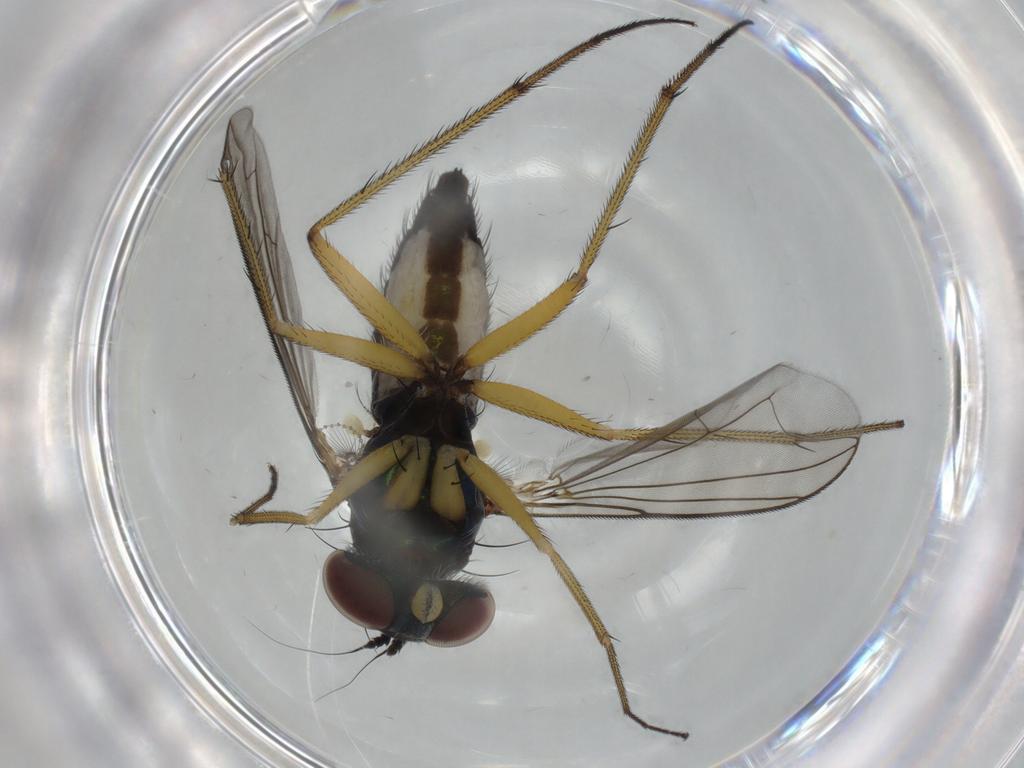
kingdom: Animalia
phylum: Arthropoda
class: Insecta
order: Diptera
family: Dolichopodidae
